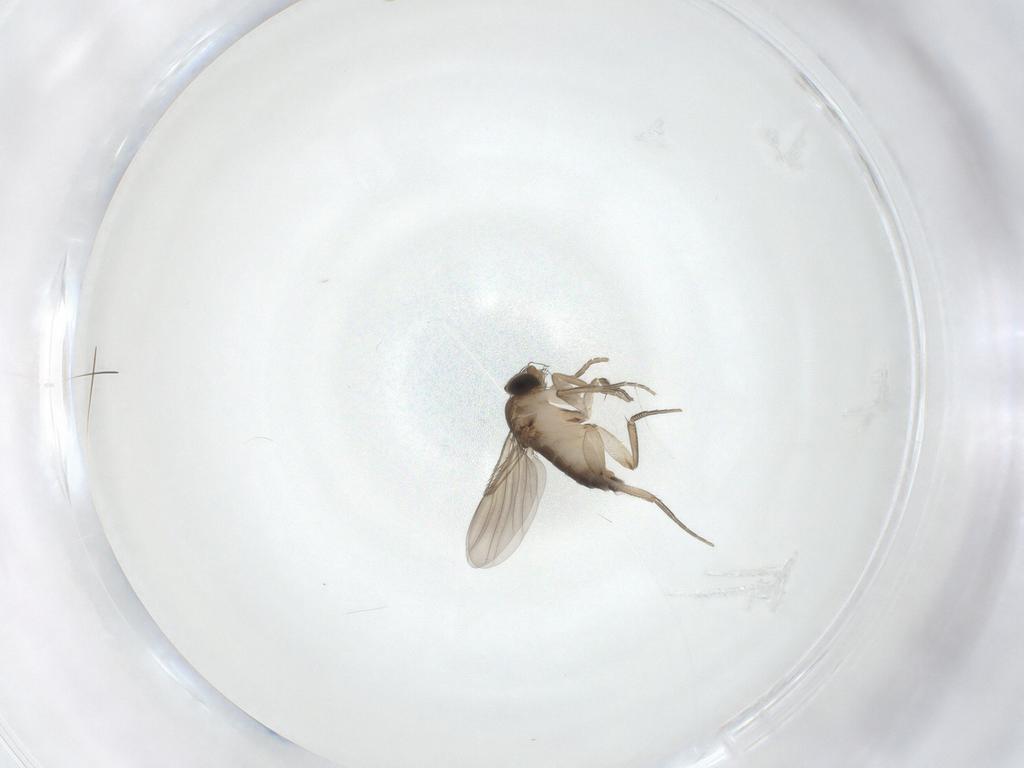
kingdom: Animalia
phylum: Arthropoda
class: Insecta
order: Diptera
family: Phoridae
